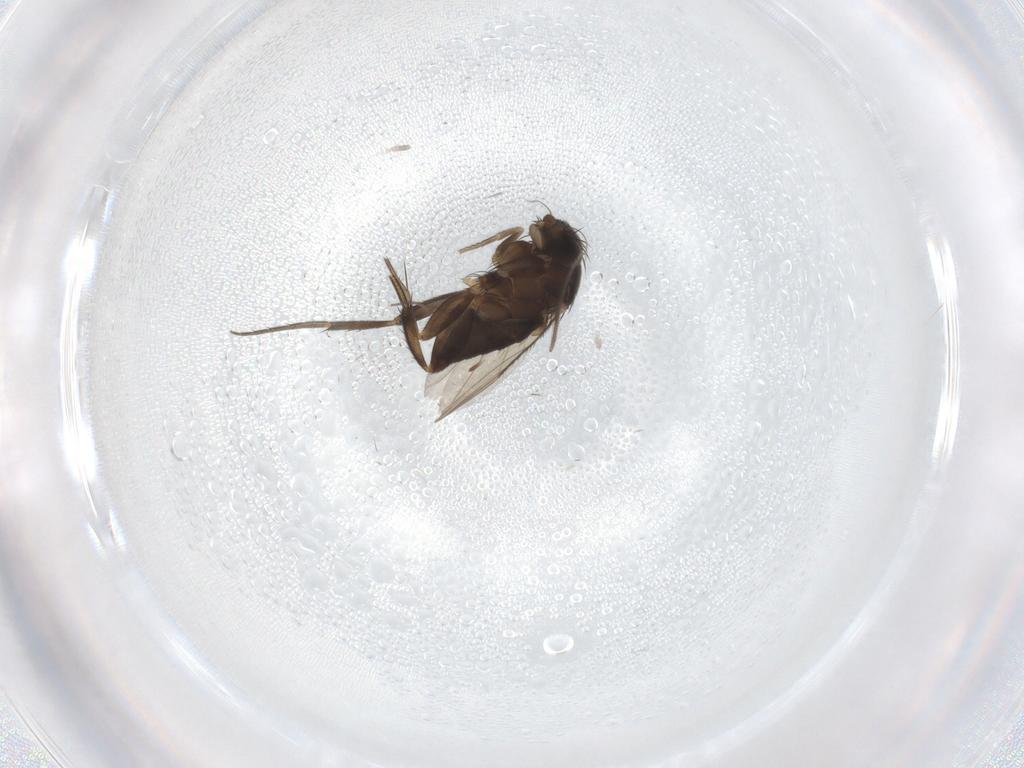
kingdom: Animalia
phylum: Arthropoda
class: Insecta
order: Diptera
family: Phoridae
